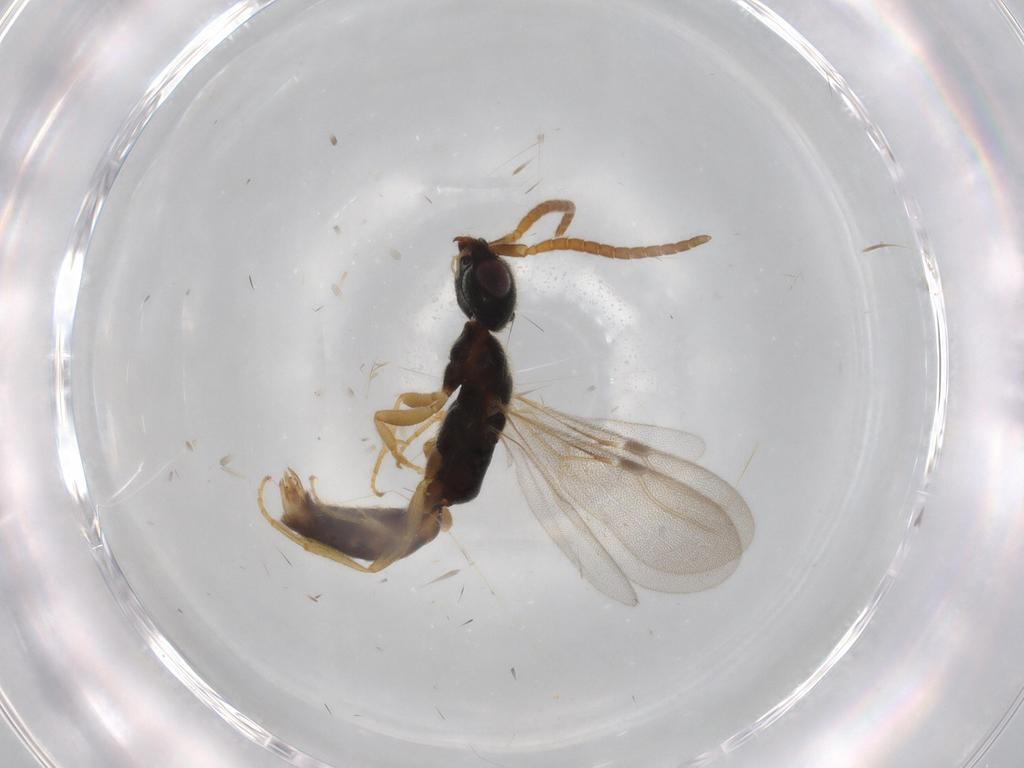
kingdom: Animalia
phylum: Arthropoda
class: Insecta
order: Hymenoptera
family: Bethylidae
